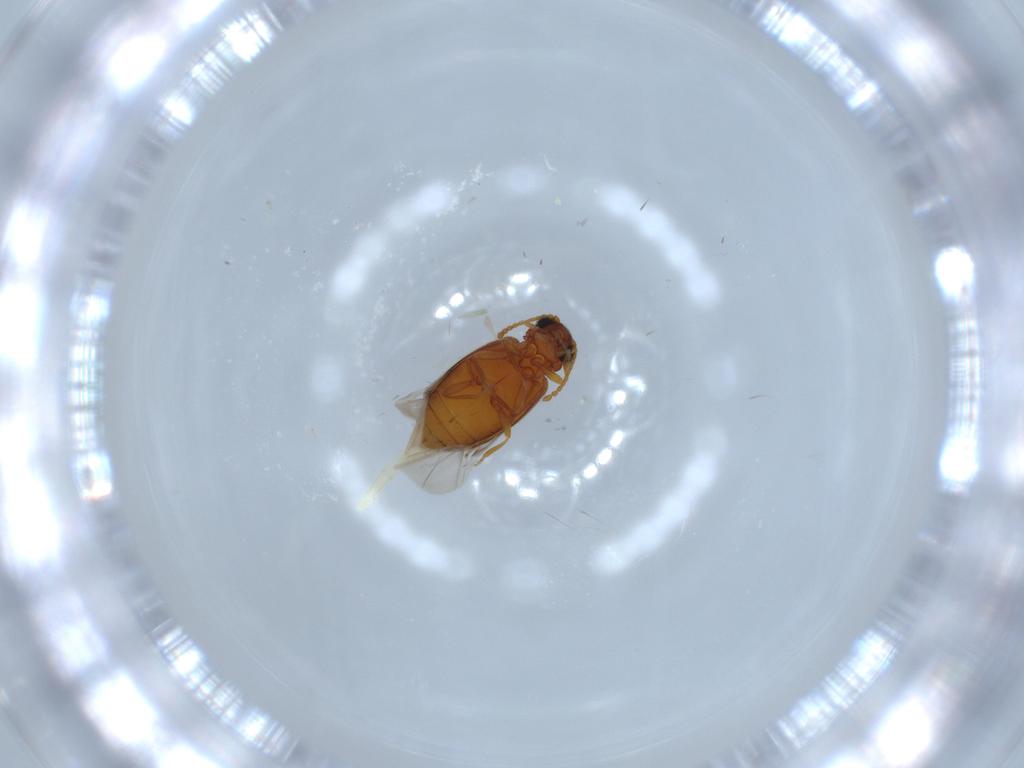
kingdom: Animalia
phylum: Arthropoda
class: Insecta
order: Coleoptera
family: Aderidae
